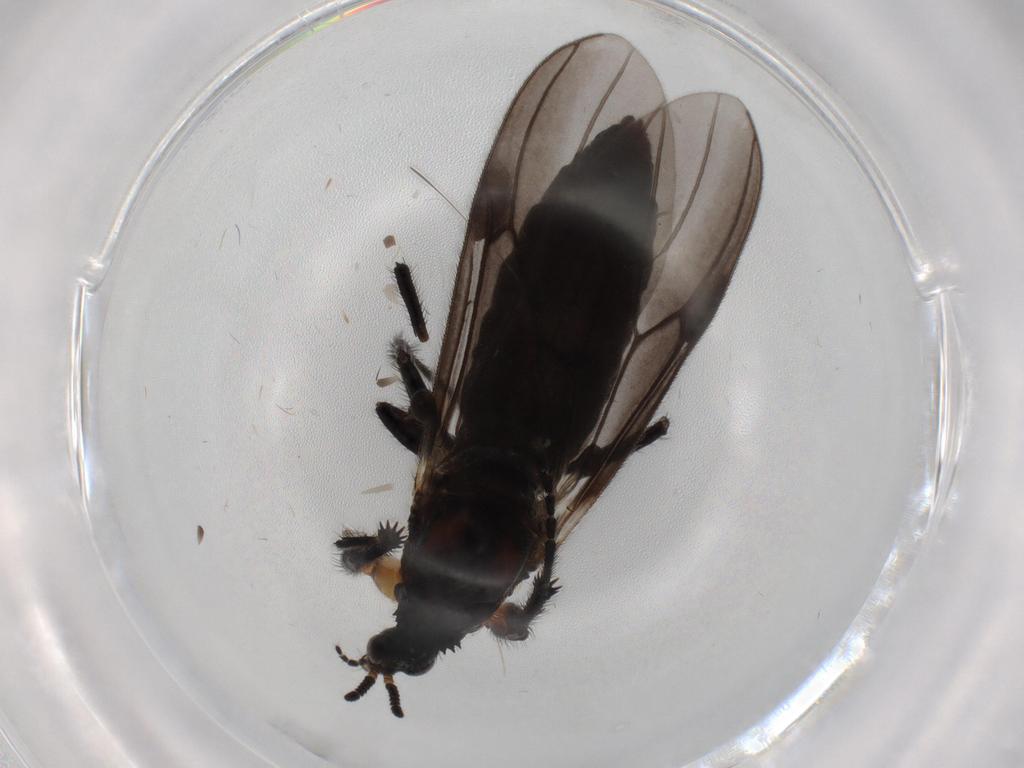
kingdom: Animalia
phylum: Arthropoda
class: Insecta
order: Diptera
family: Bibionidae
